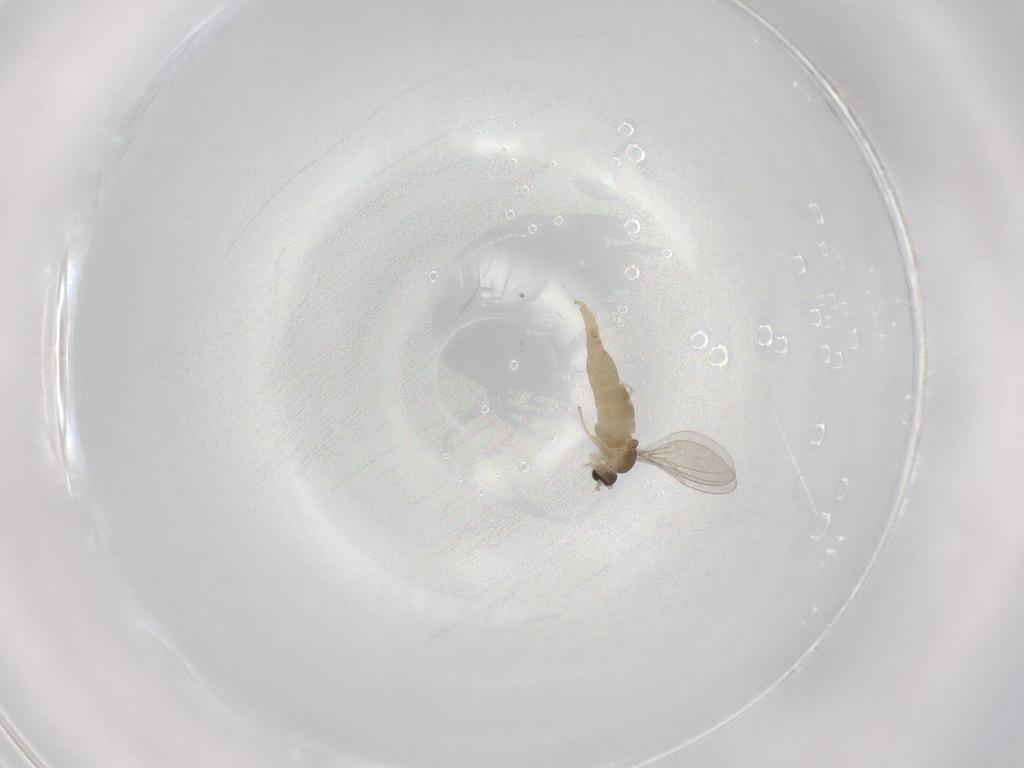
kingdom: Animalia
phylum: Arthropoda
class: Insecta
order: Diptera
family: Cecidomyiidae
